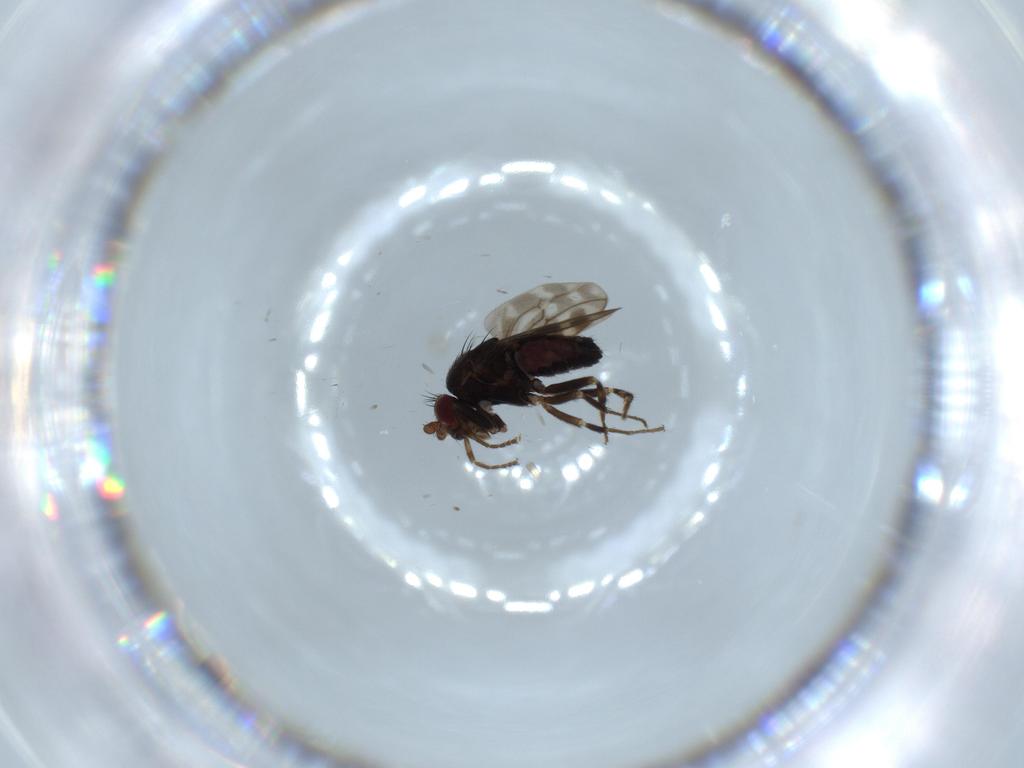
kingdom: Animalia
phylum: Arthropoda
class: Insecta
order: Diptera
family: Sphaeroceridae
